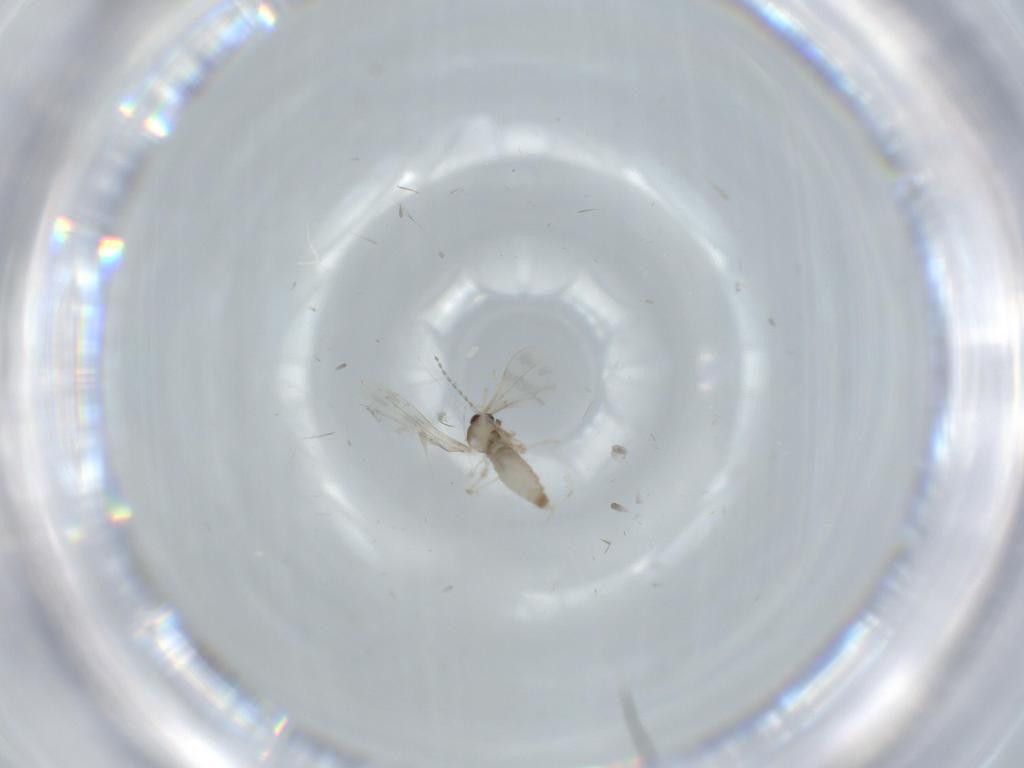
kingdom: Animalia
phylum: Arthropoda
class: Insecta
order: Diptera
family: Cecidomyiidae
